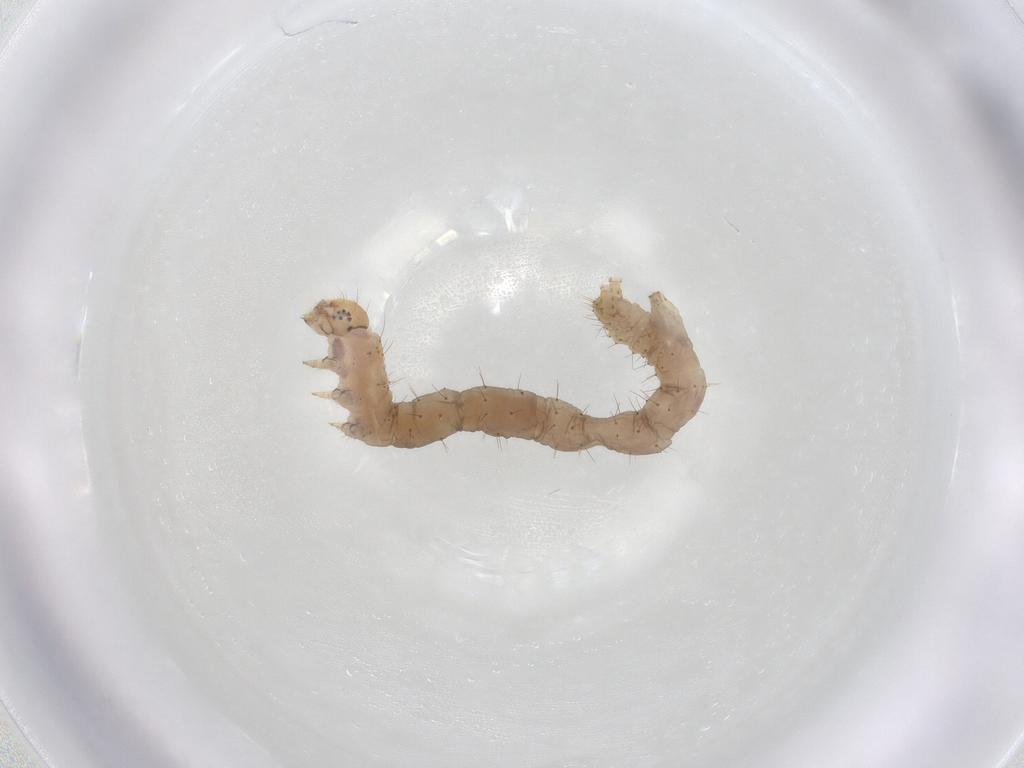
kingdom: Animalia
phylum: Arthropoda
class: Insecta
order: Lepidoptera
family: Geometridae
